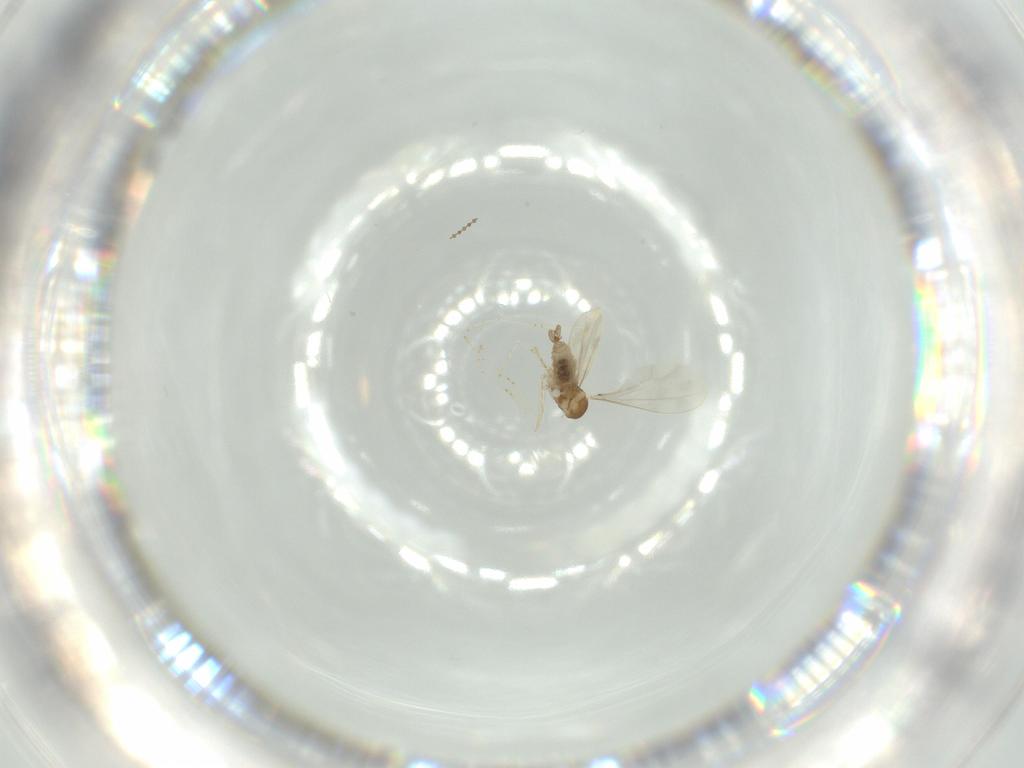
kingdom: Animalia
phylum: Arthropoda
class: Insecta
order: Diptera
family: Cecidomyiidae
